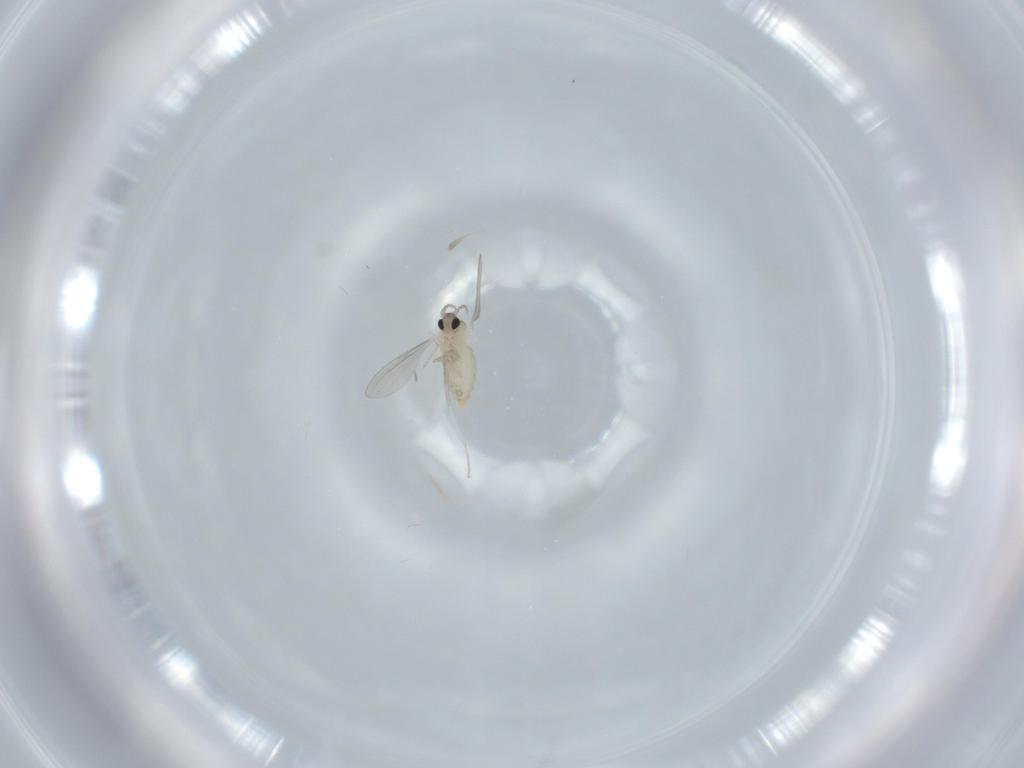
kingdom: Animalia
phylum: Arthropoda
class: Insecta
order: Diptera
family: Cecidomyiidae
